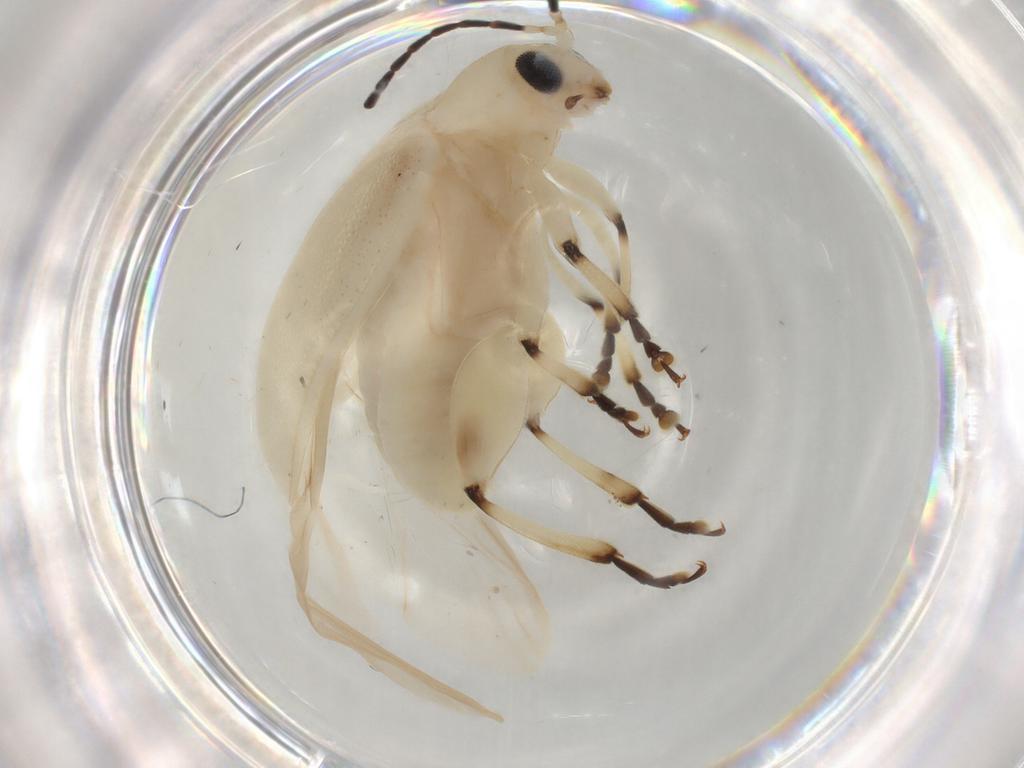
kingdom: Animalia
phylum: Arthropoda
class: Insecta
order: Coleoptera
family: Chrysomelidae
